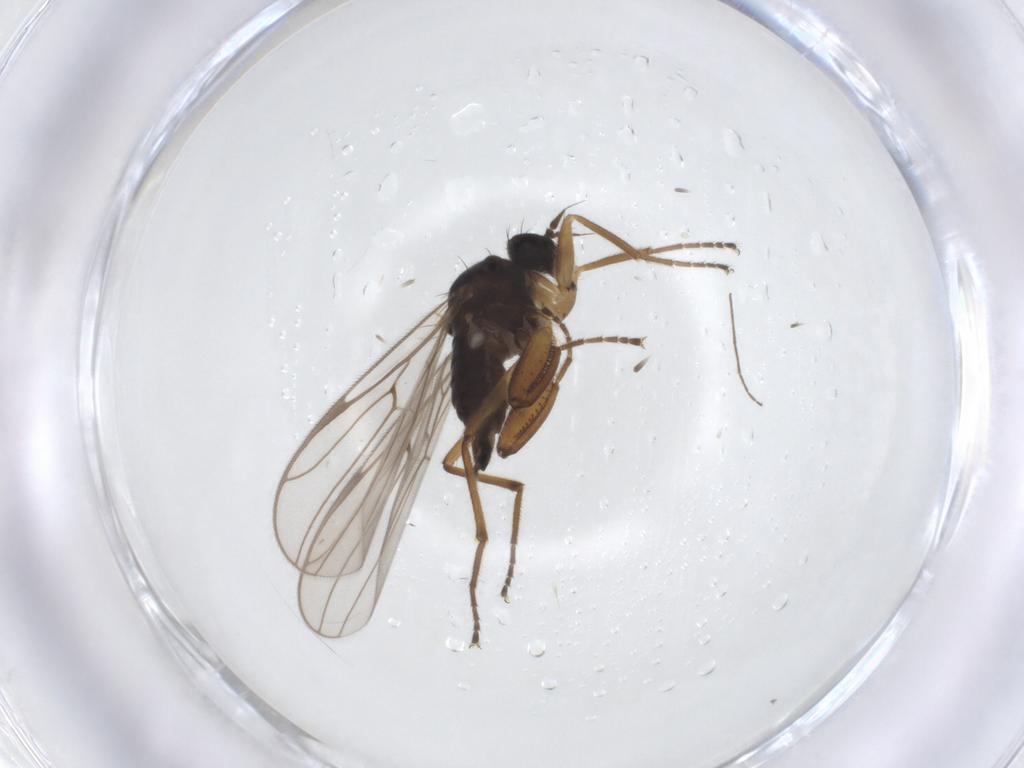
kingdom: Animalia
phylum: Arthropoda
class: Insecta
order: Diptera
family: Hybotidae
